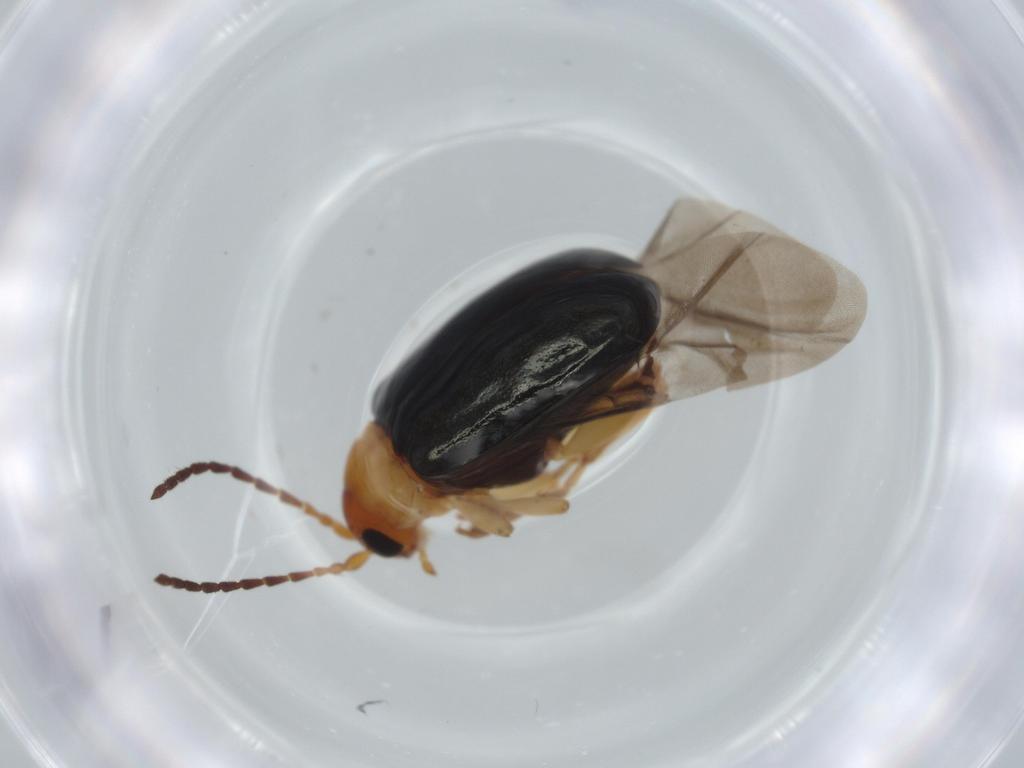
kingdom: Animalia
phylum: Arthropoda
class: Insecta
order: Coleoptera
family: Chrysomelidae
